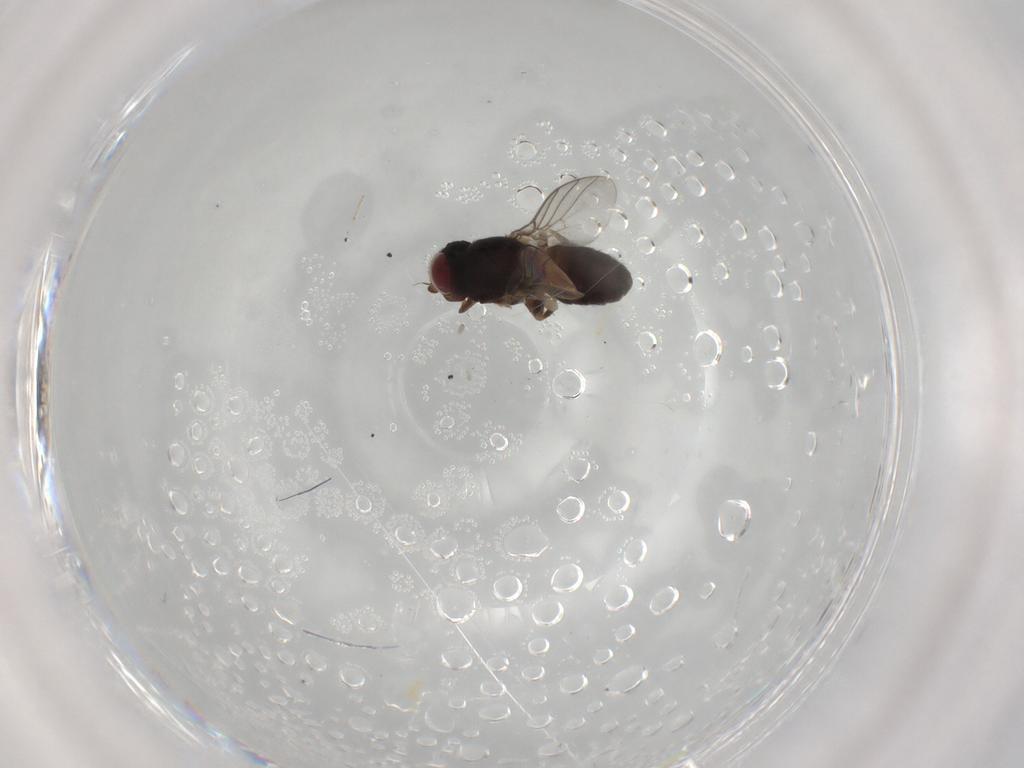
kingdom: Animalia
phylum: Arthropoda
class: Insecta
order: Diptera
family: Chloropidae
